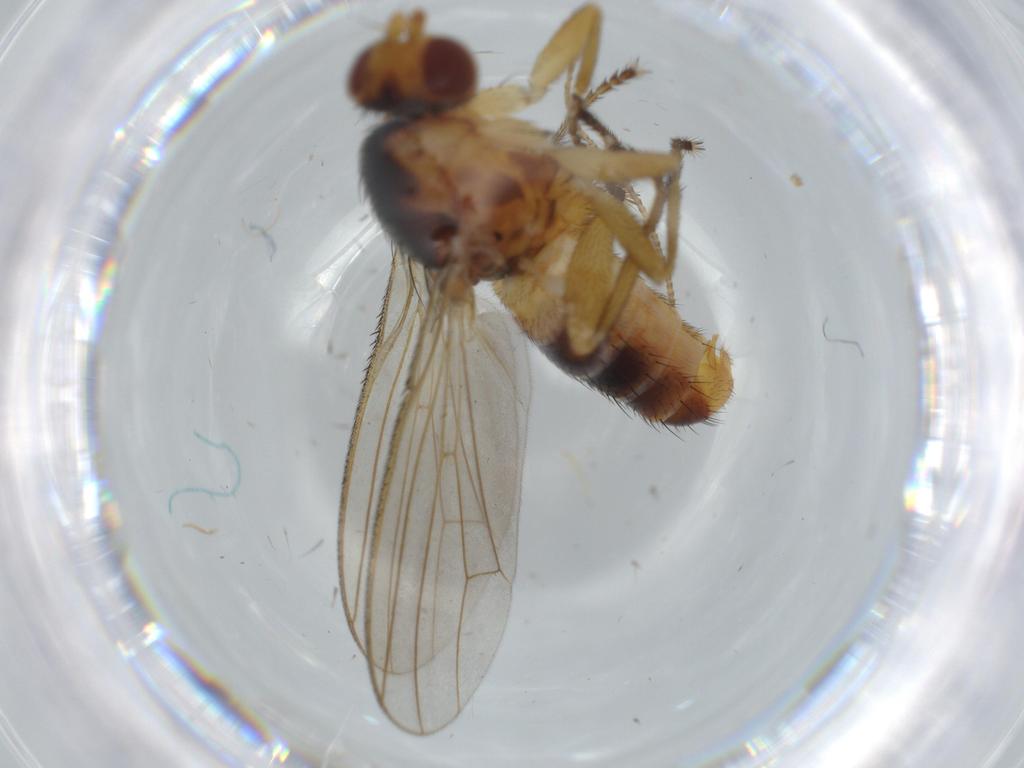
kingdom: Animalia
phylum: Arthropoda
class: Insecta
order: Diptera
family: Heleomyzidae
